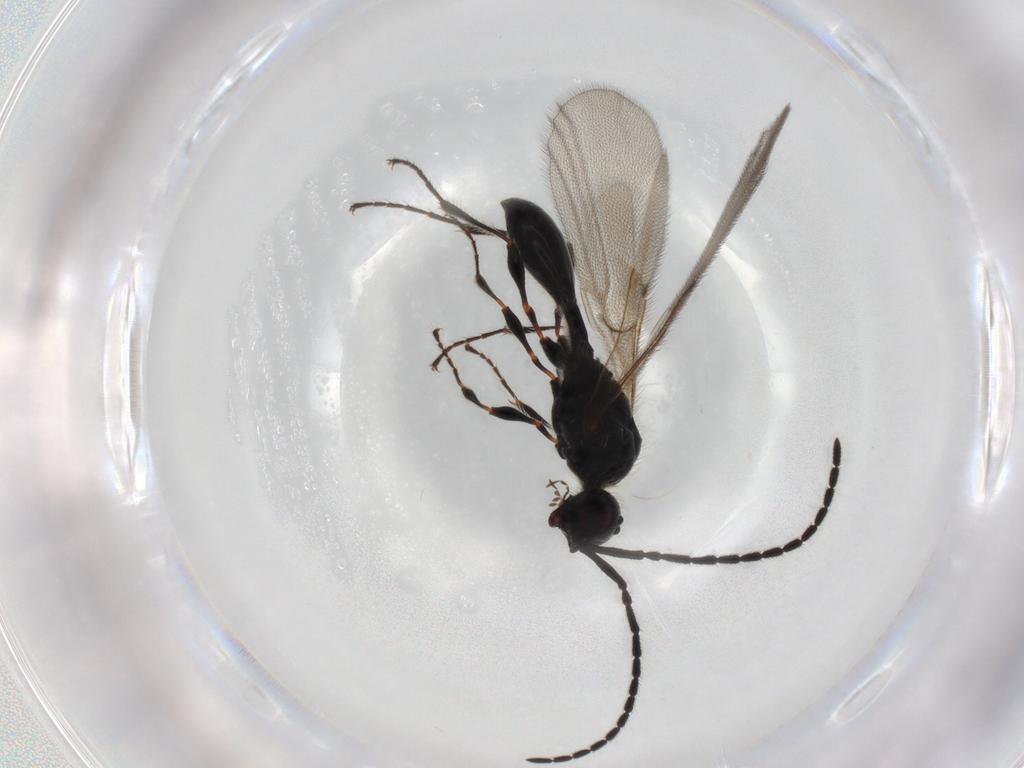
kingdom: Animalia
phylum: Arthropoda
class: Insecta
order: Hymenoptera
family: Diapriidae
